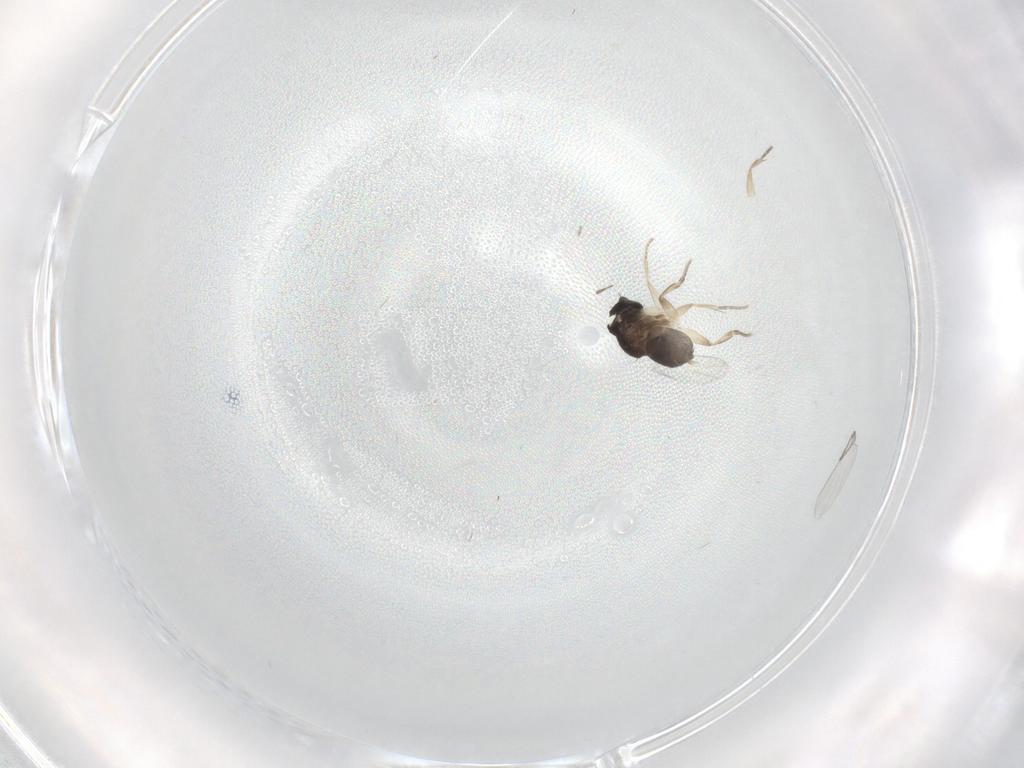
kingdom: Animalia
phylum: Arthropoda
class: Insecta
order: Diptera
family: Phoridae
